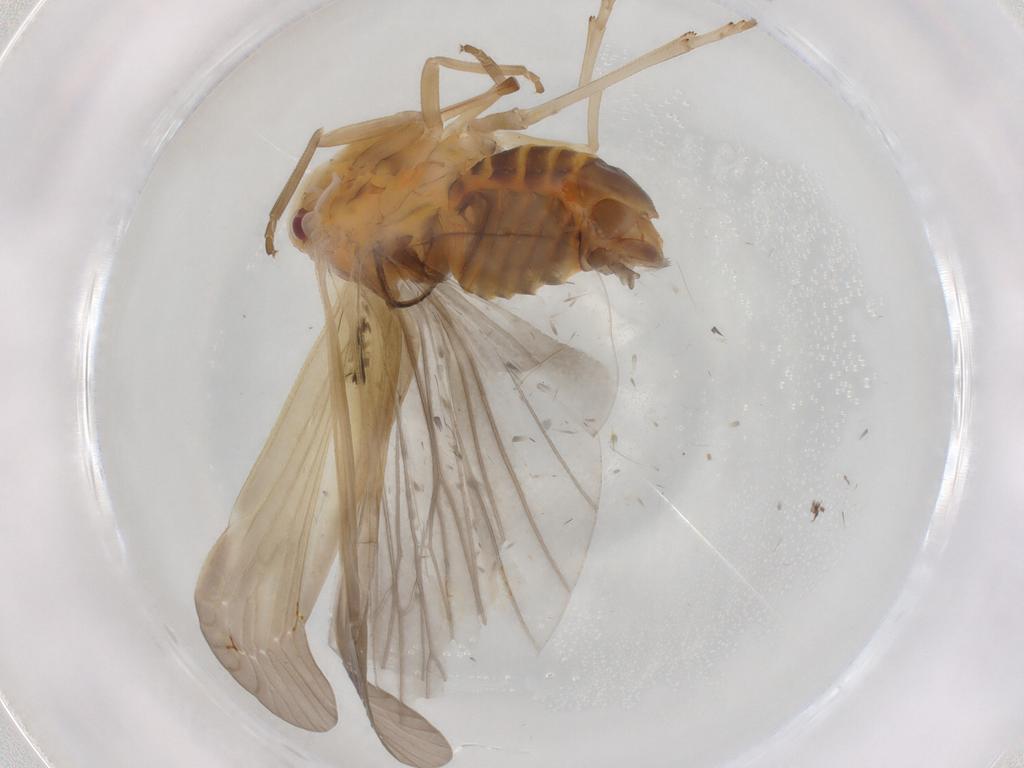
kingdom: Animalia
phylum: Arthropoda
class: Insecta
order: Hemiptera
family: Derbidae
